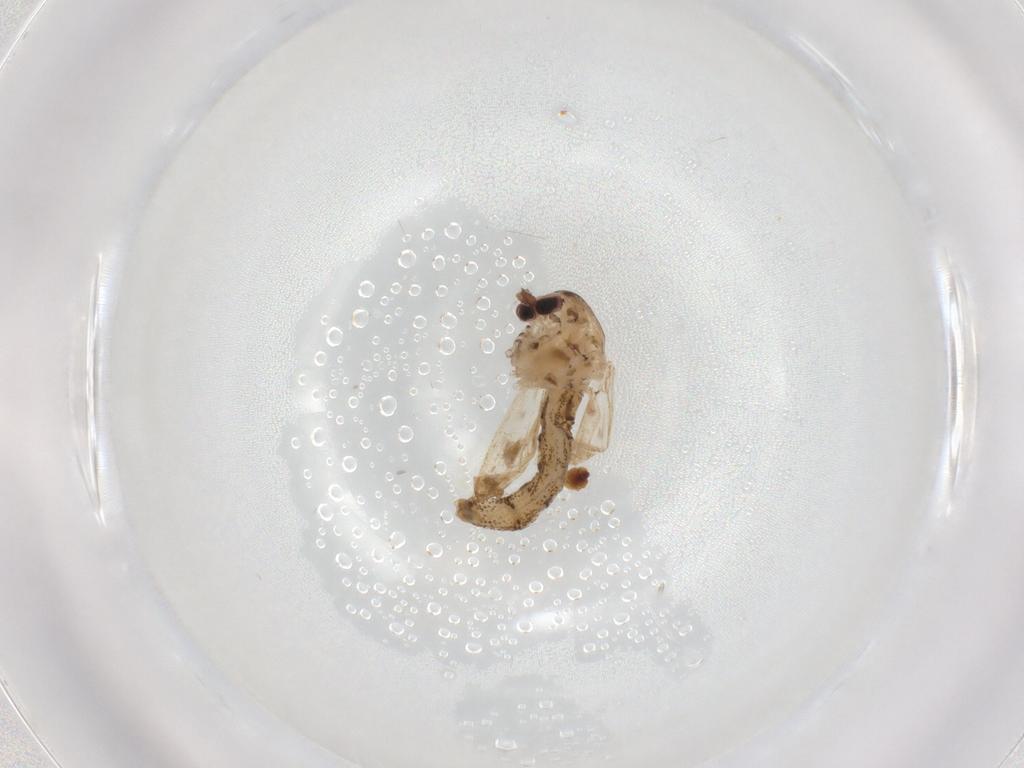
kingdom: Animalia
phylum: Arthropoda
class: Insecta
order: Diptera
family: Chaoboridae
